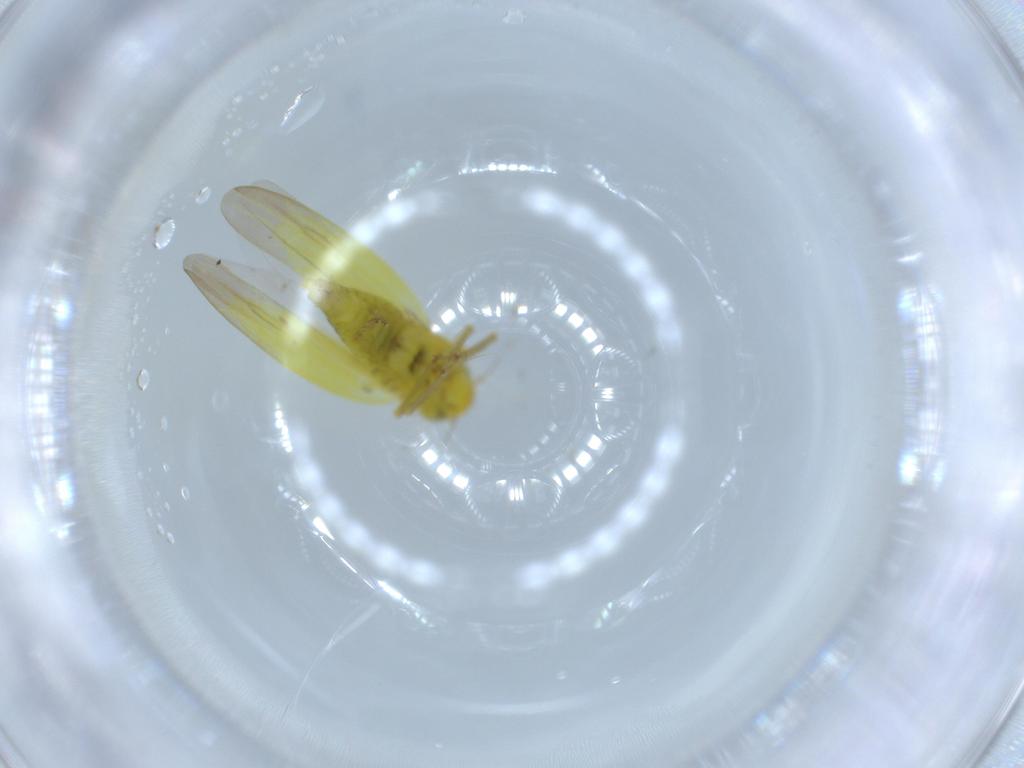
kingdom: Animalia
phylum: Arthropoda
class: Insecta
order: Hemiptera
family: Cicadellidae
